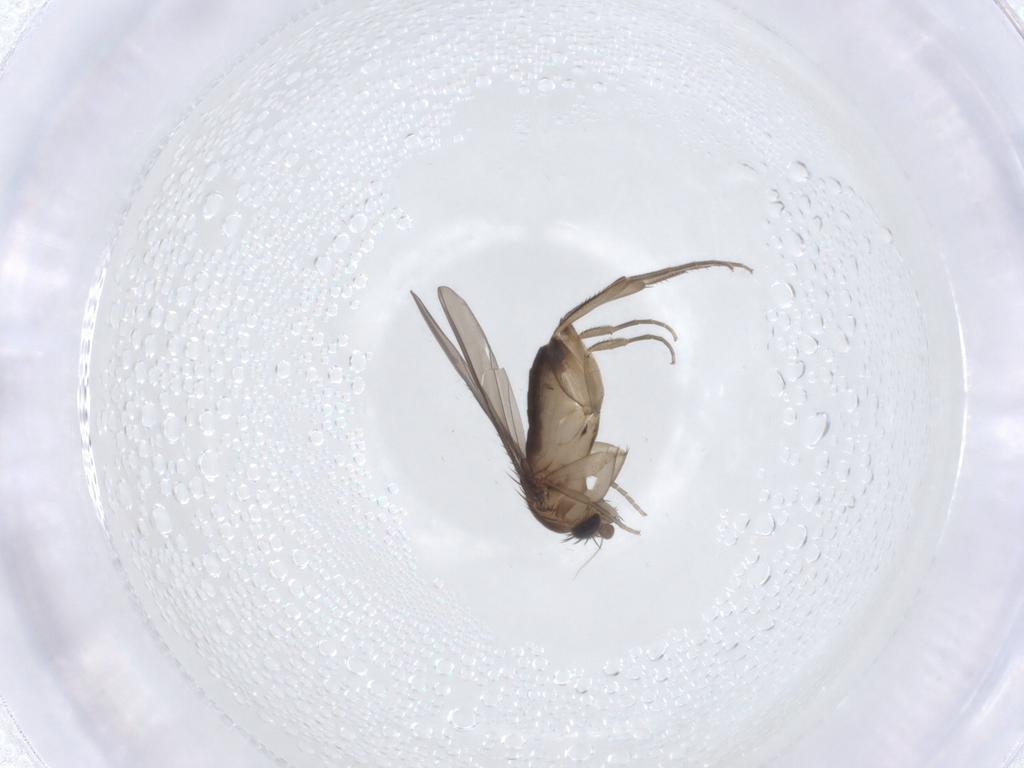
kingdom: Animalia
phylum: Arthropoda
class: Insecta
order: Diptera
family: Phoridae
